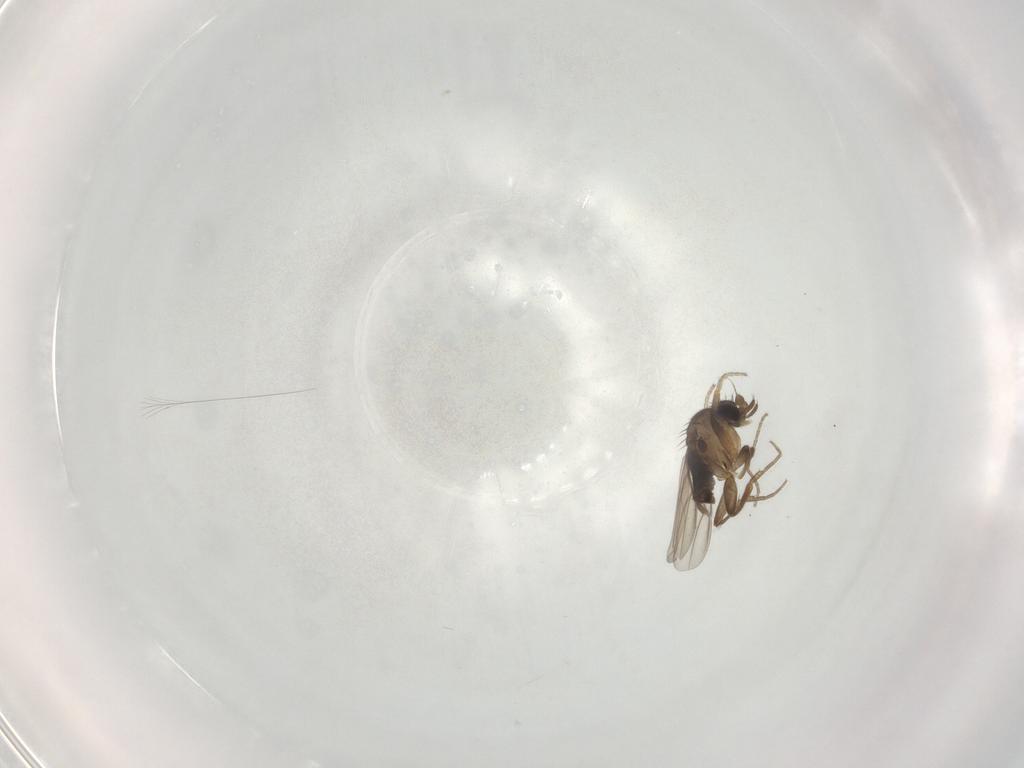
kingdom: Animalia
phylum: Arthropoda
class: Insecta
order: Diptera
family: Phoridae
